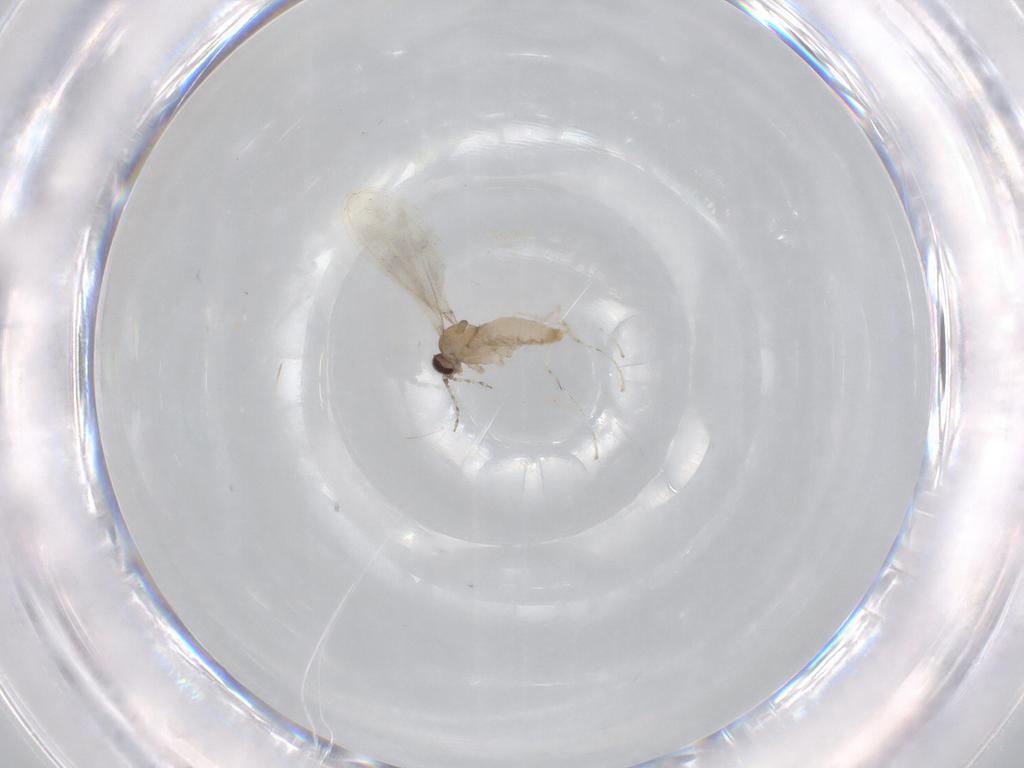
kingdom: Animalia
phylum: Arthropoda
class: Insecta
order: Diptera
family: Cecidomyiidae
